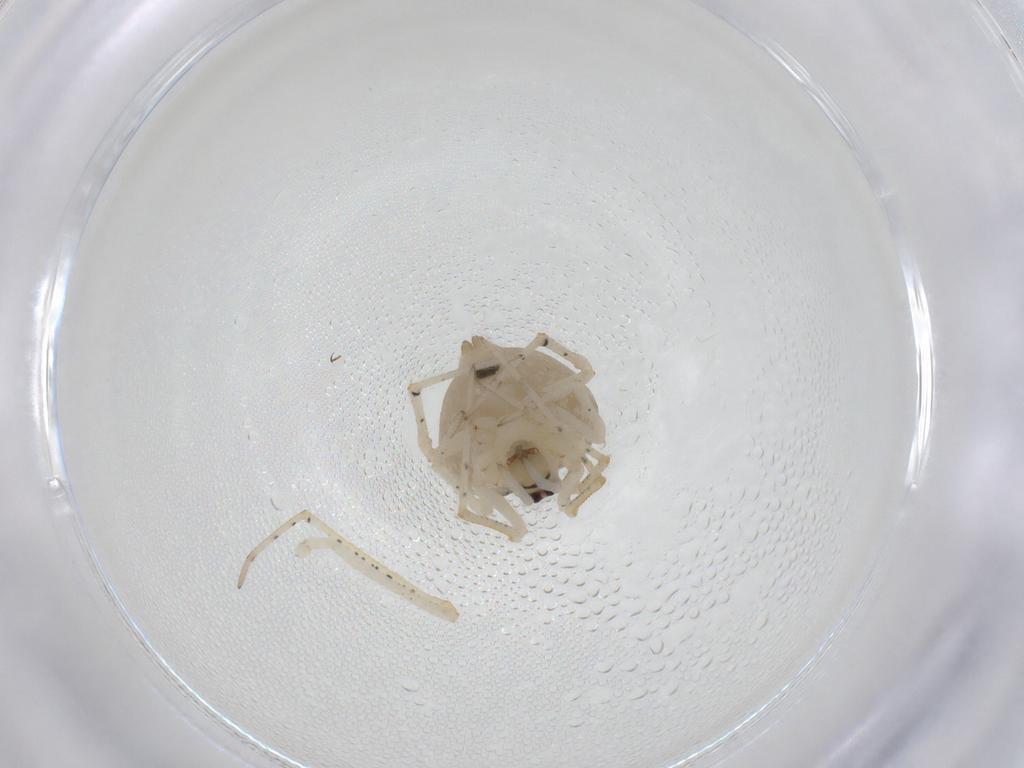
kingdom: Animalia
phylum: Arthropoda
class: Arachnida
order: Araneae
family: Theridiidae
